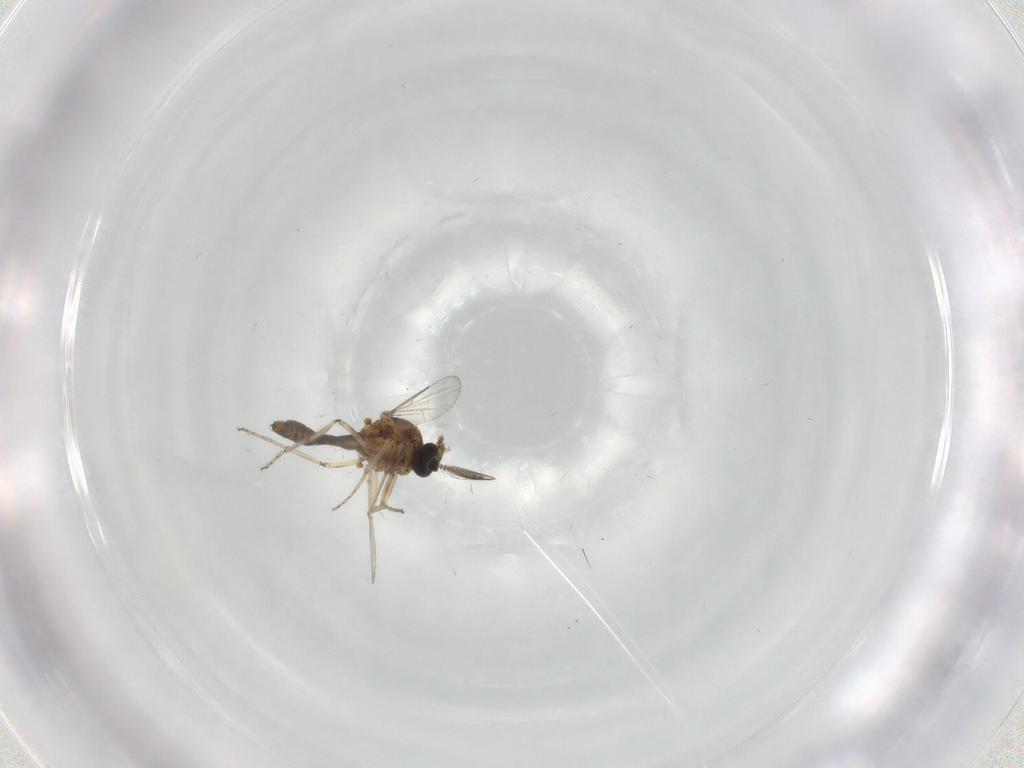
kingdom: Animalia
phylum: Arthropoda
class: Insecta
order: Diptera
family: Ceratopogonidae
